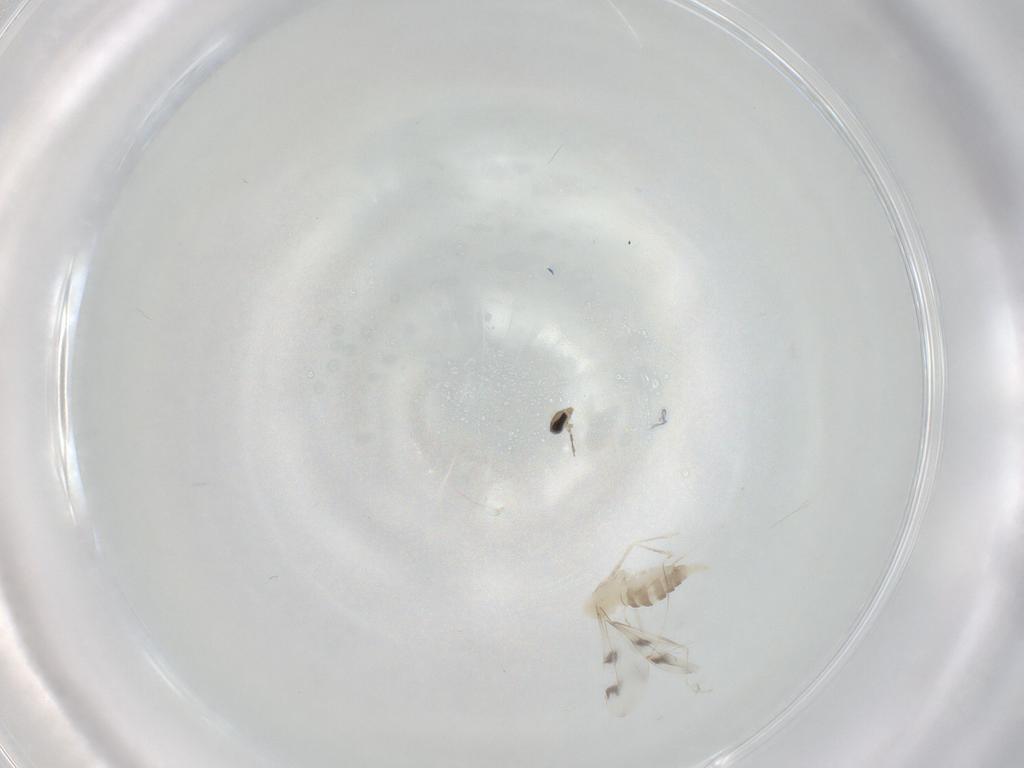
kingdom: Animalia
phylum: Arthropoda
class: Insecta
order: Diptera
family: Cecidomyiidae
